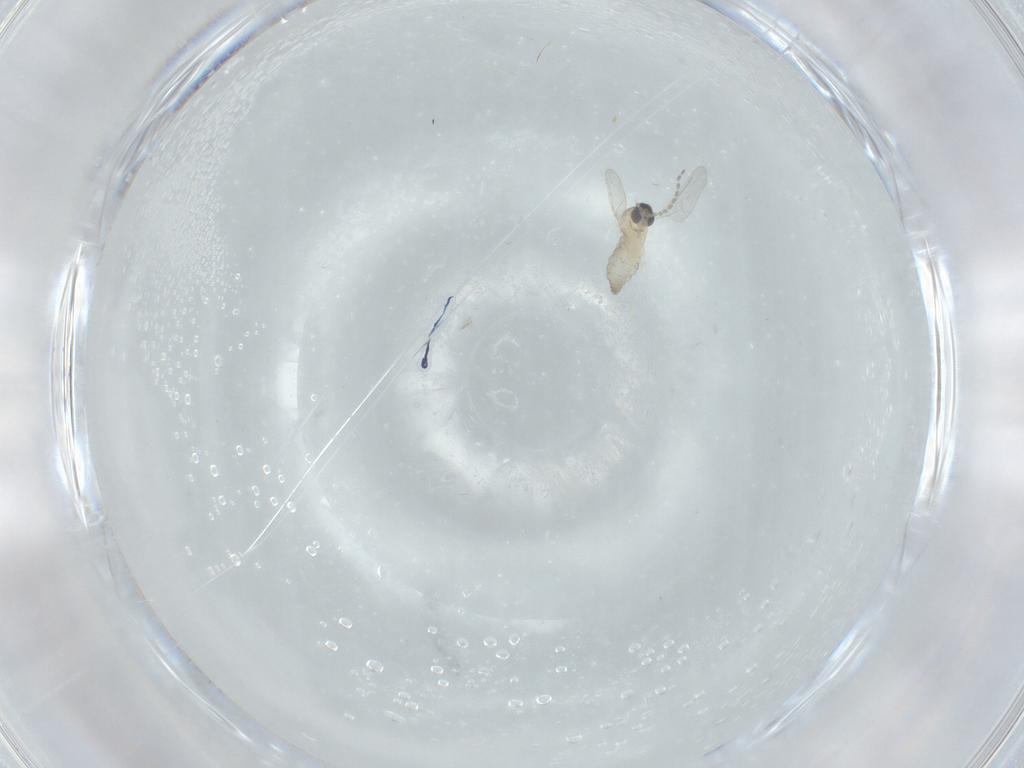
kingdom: Animalia
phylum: Arthropoda
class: Insecta
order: Diptera
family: Cecidomyiidae
